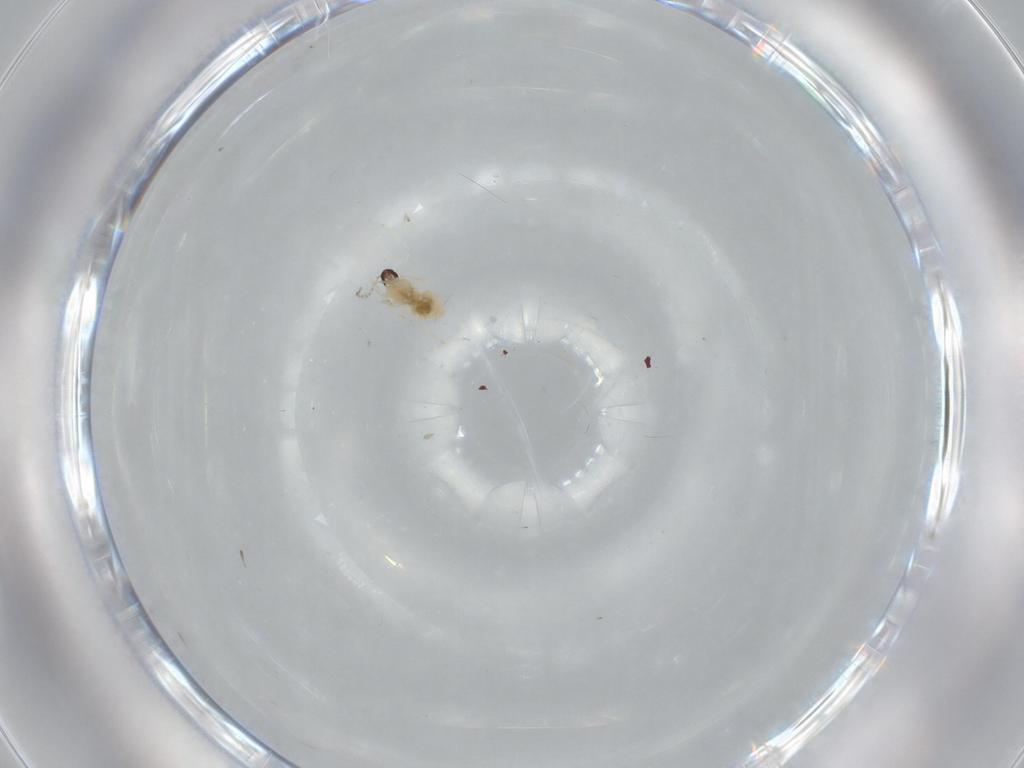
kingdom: Animalia
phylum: Arthropoda
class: Insecta
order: Diptera
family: Cecidomyiidae
